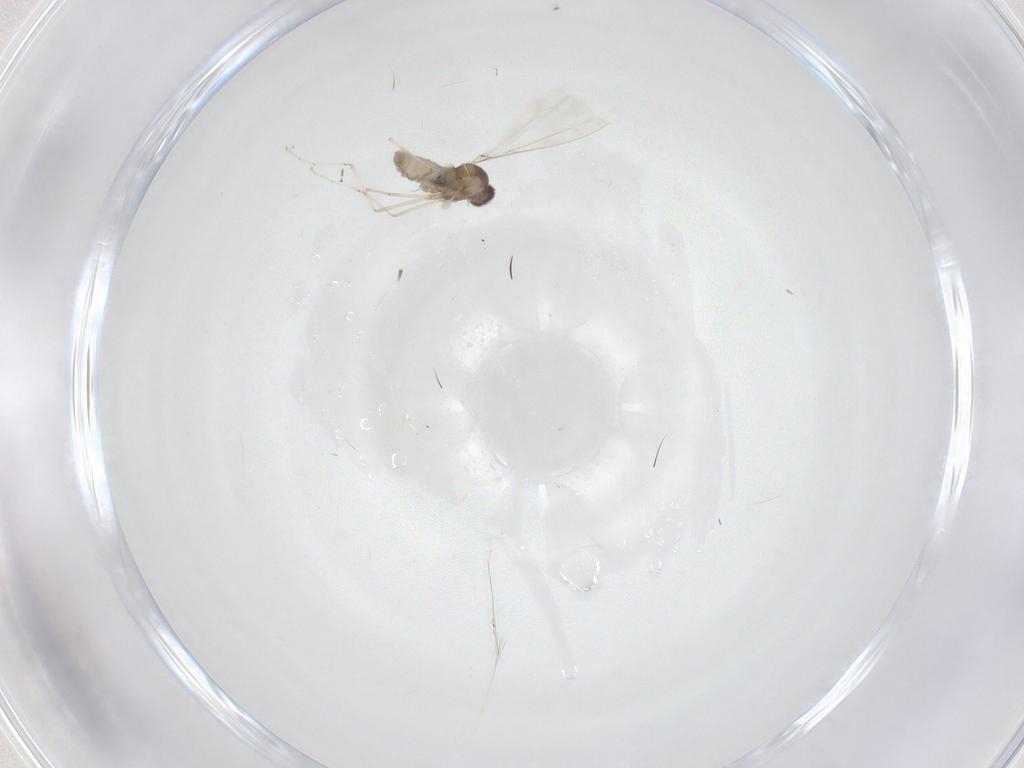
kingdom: Animalia
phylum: Arthropoda
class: Insecta
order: Diptera
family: Cecidomyiidae
